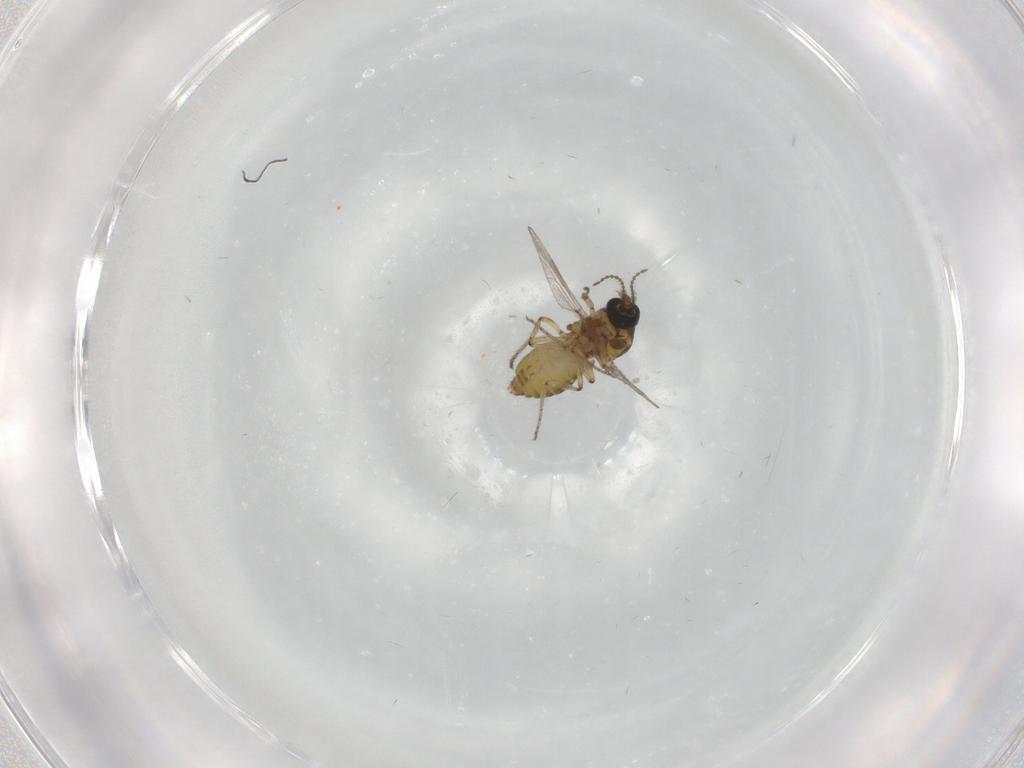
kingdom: Animalia
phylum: Arthropoda
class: Insecta
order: Diptera
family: Ceratopogonidae
